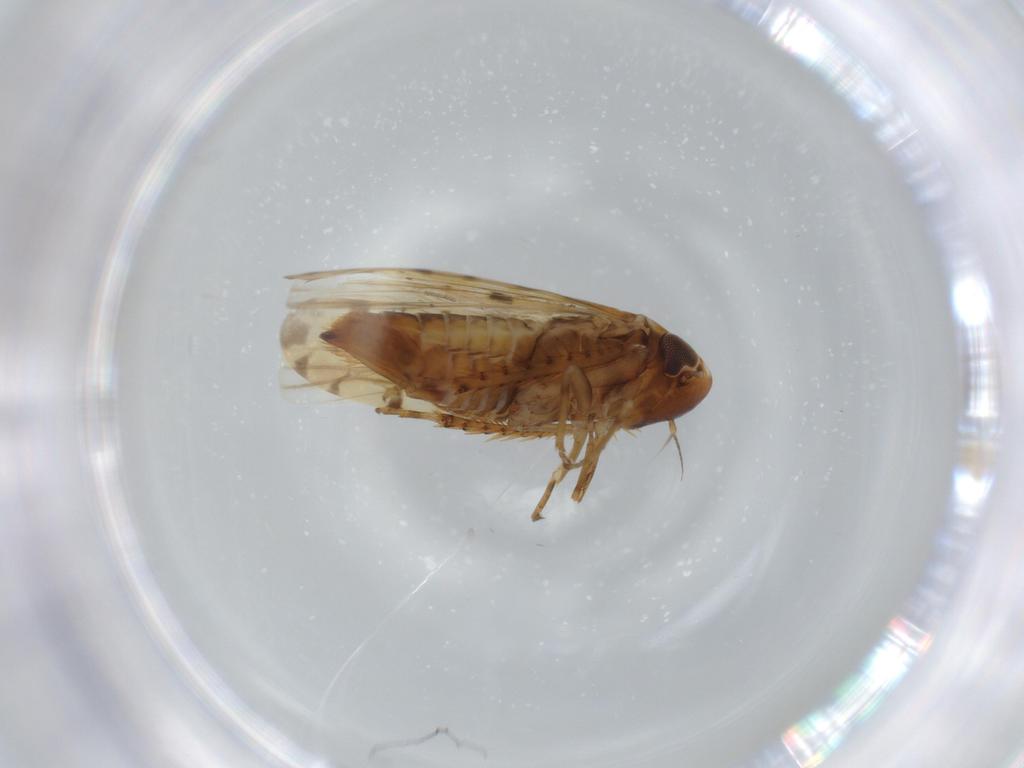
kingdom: Animalia
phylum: Arthropoda
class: Insecta
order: Hemiptera
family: Cicadellidae
